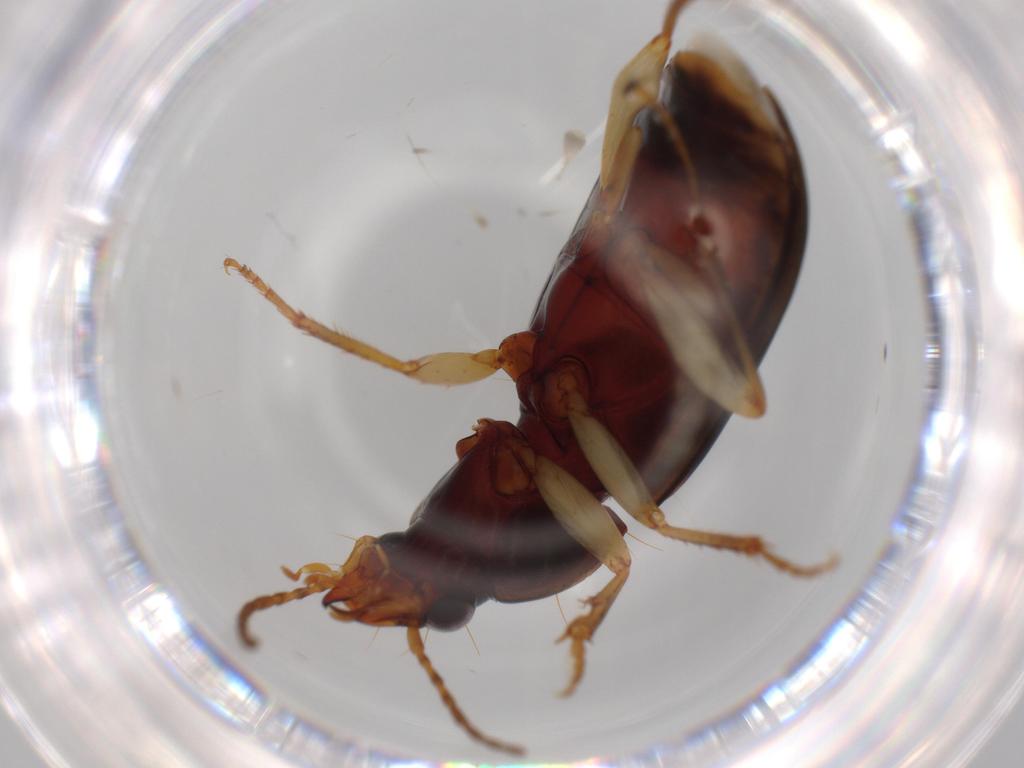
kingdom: Animalia
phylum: Arthropoda
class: Insecta
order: Coleoptera
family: Carabidae
